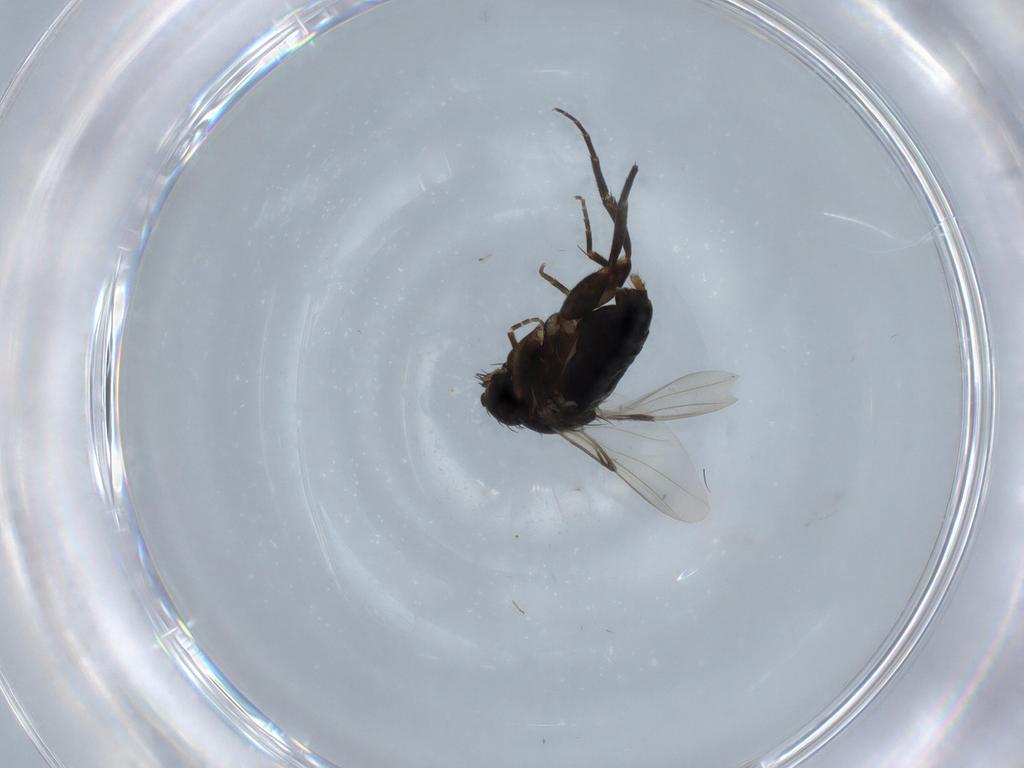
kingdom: Animalia
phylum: Arthropoda
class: Insecta
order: Diptera
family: Phoridae
